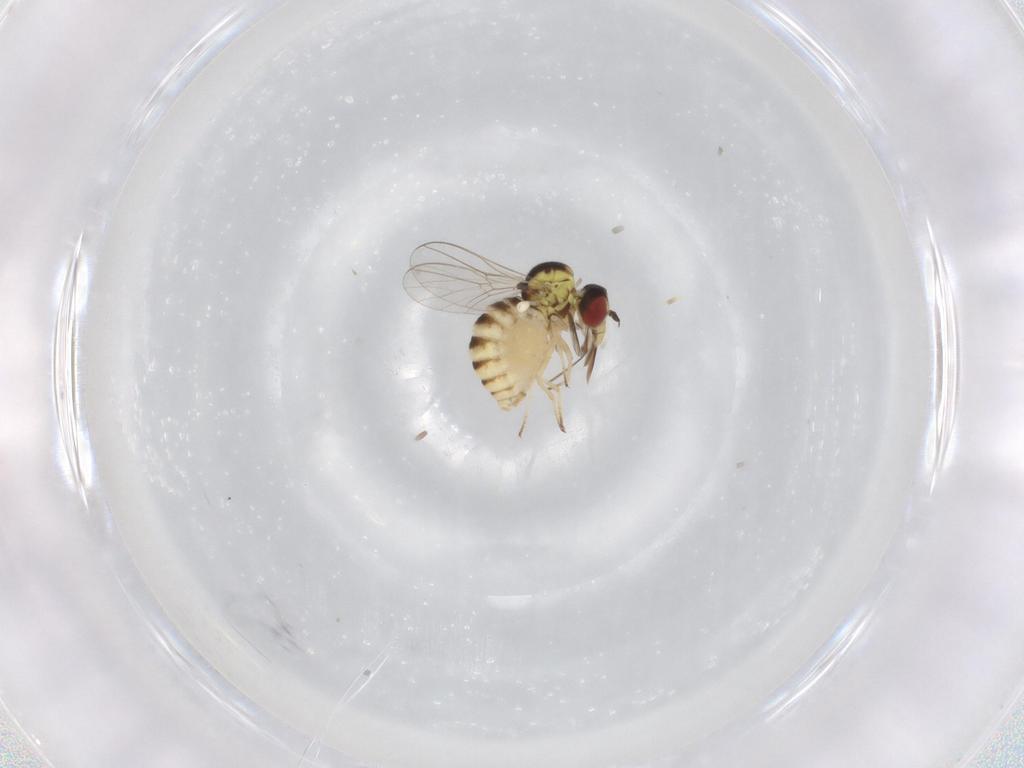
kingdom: Animalia
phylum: Arthropoda
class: Insecta
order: Diptera
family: Bombyliidae
